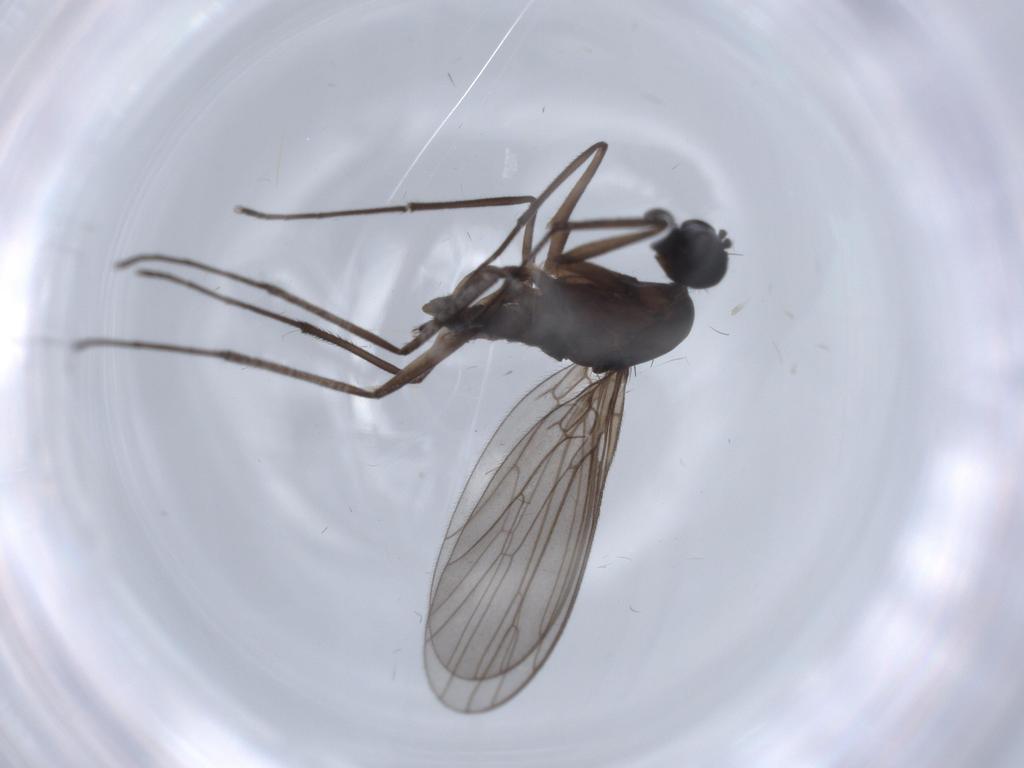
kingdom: Animalia
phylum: Arthropoda
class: Insecta
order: Diptera
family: Empididae
